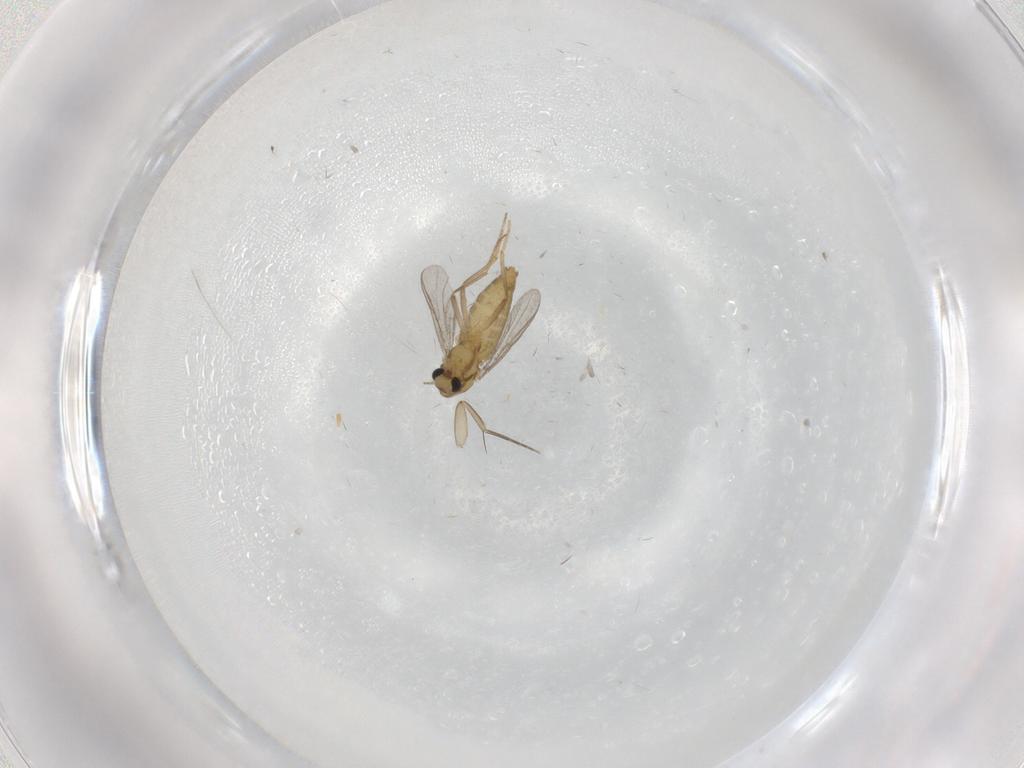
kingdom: Animalia
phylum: Arthropoda
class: Insecta
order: Diptera
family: Chironomidae
